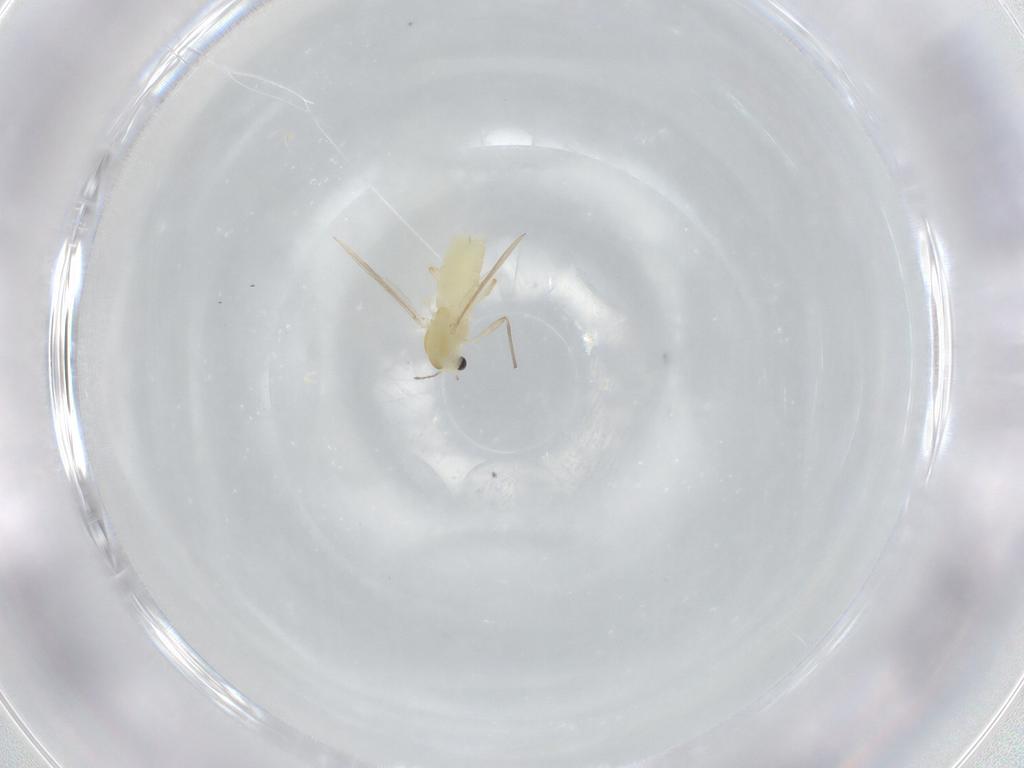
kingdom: Animalia
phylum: Arthropoda
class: Insecta
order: Diptera
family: Chironomidae
